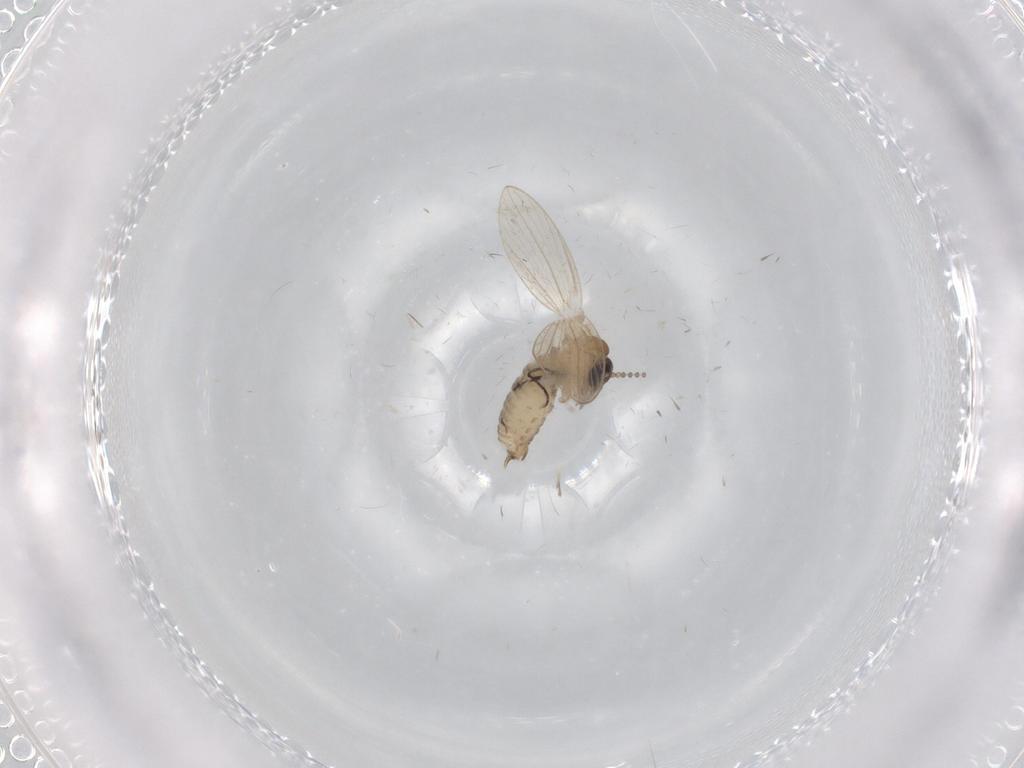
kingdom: Animalia
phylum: Arthropoda
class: Insecta
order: Diptera
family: Psychodidae
